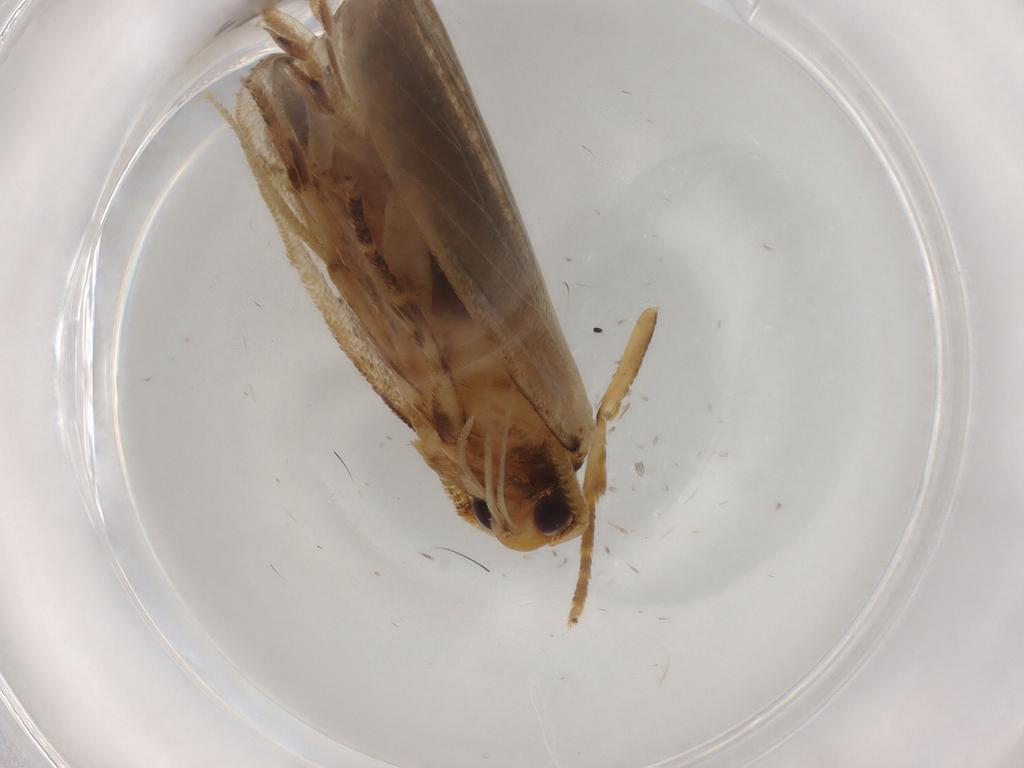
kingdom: Animalia
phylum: Arthropoda
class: Insecta
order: Lepidoptera
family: Lecithoceridae
